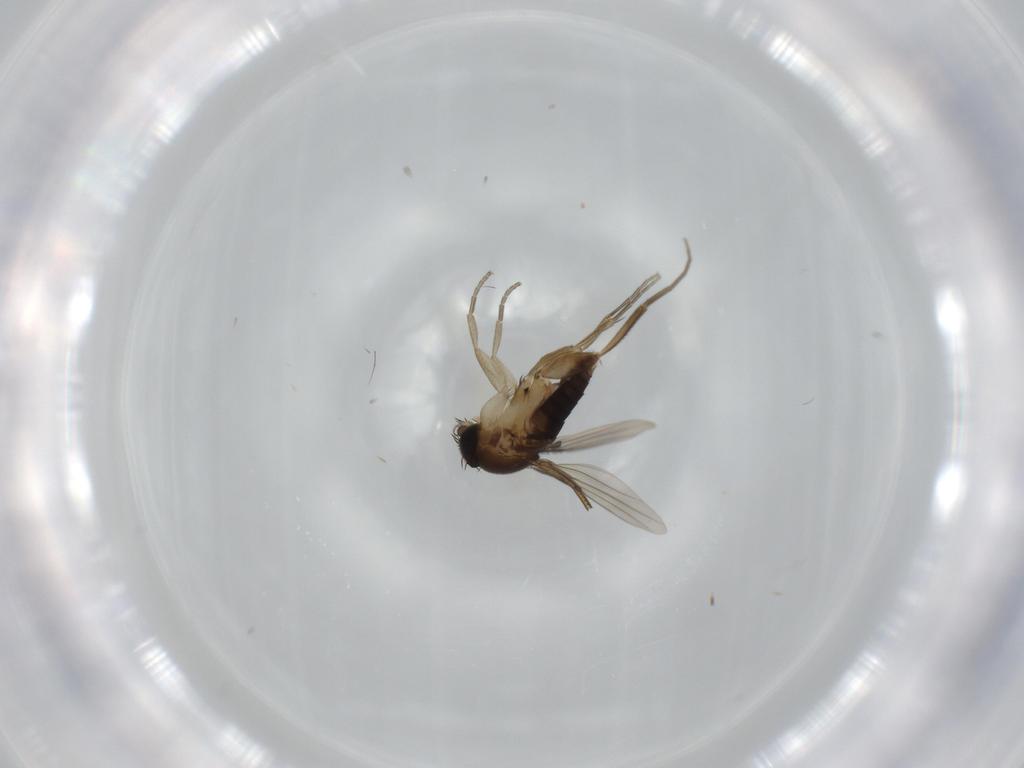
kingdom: Animalia
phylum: Arthropoda
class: Insecta
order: Diptera
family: Phoridae
